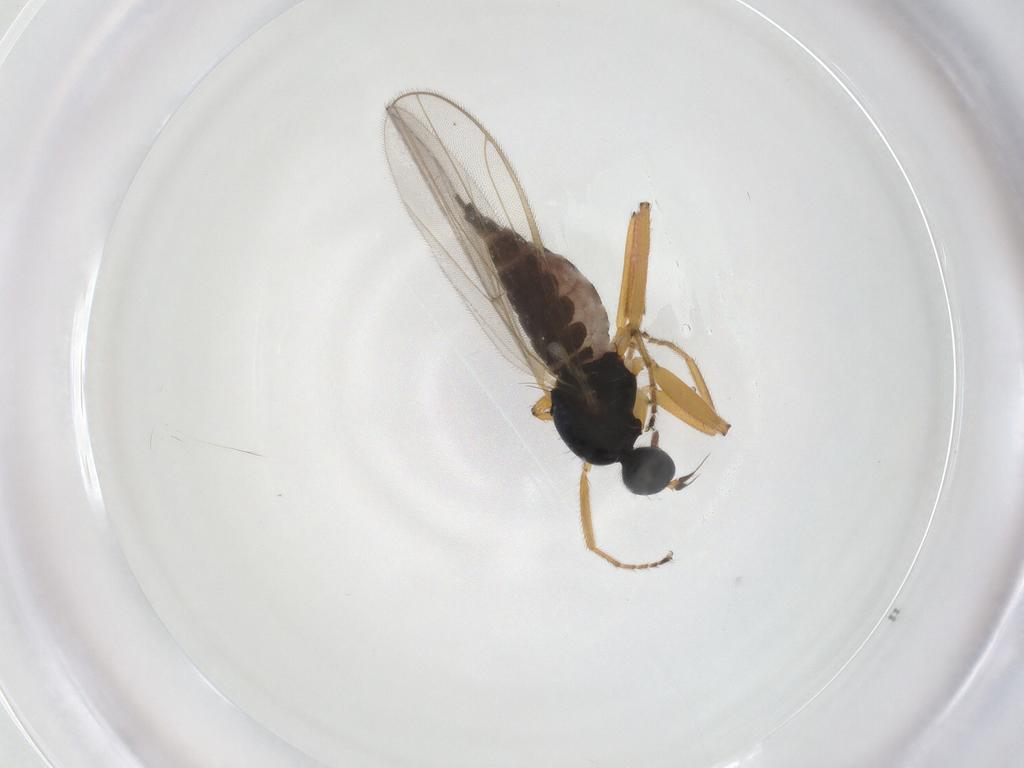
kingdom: Animalia
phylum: Arthropoda
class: Insecta
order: Diptera
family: Hybotidae
